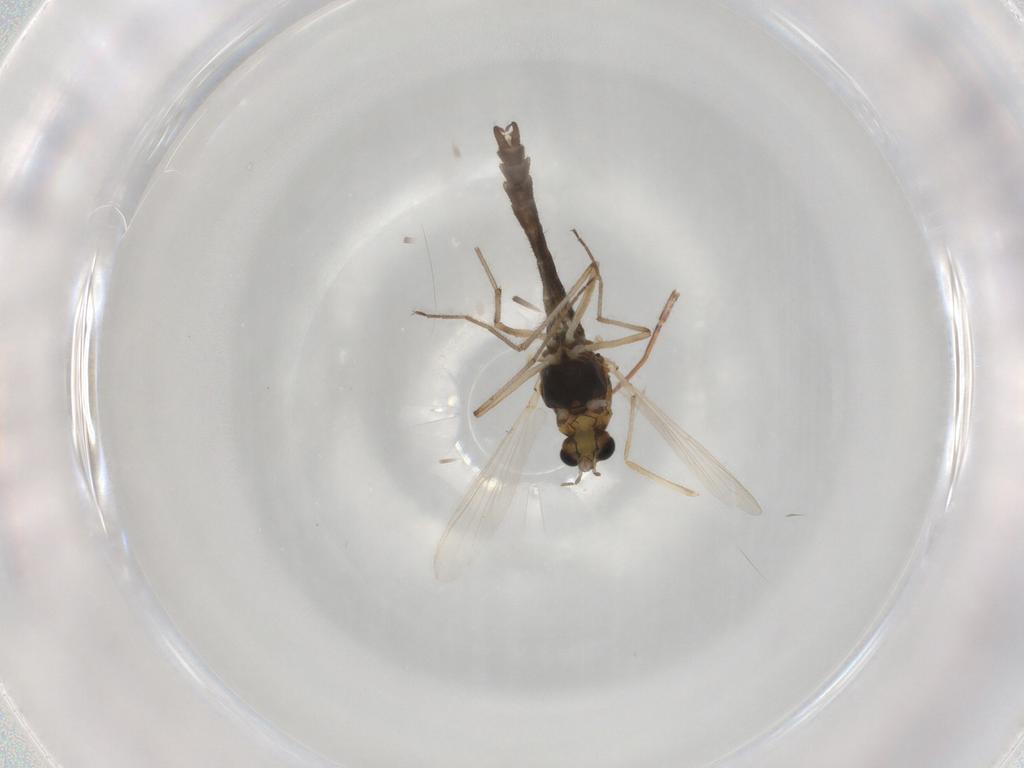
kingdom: Animalia
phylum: Arthropoda
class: Insecta
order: Diptera
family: Chironomidae
